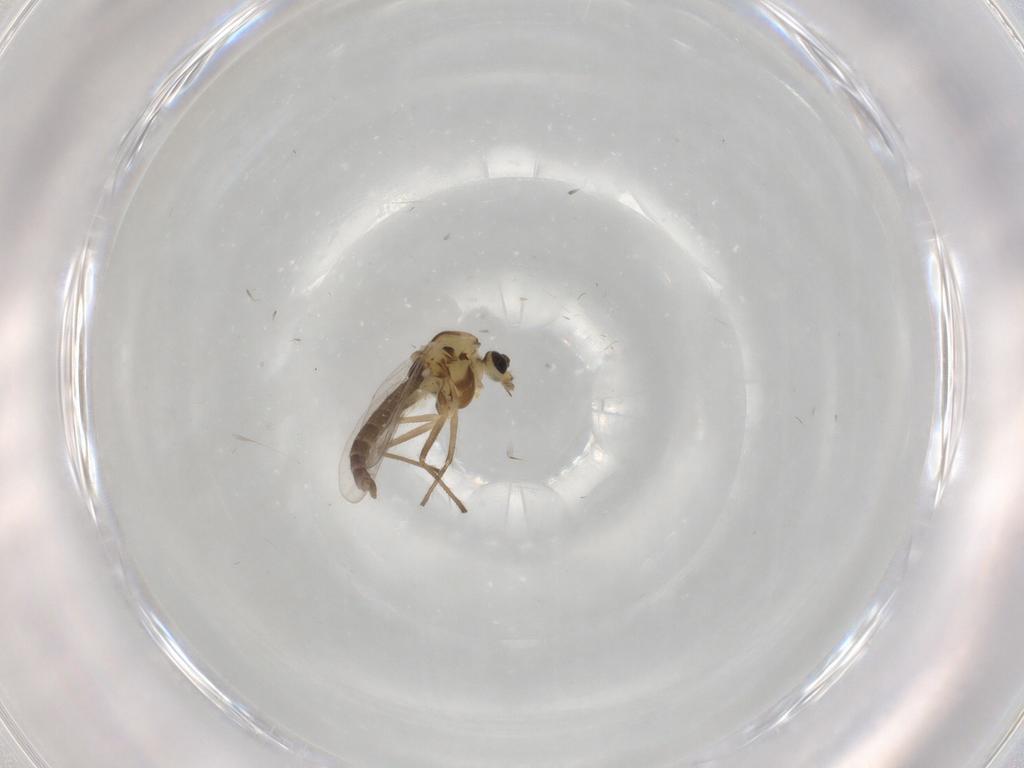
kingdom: Animalia
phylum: Arthropoda
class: Insecta
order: Diptera
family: Chironomidae
